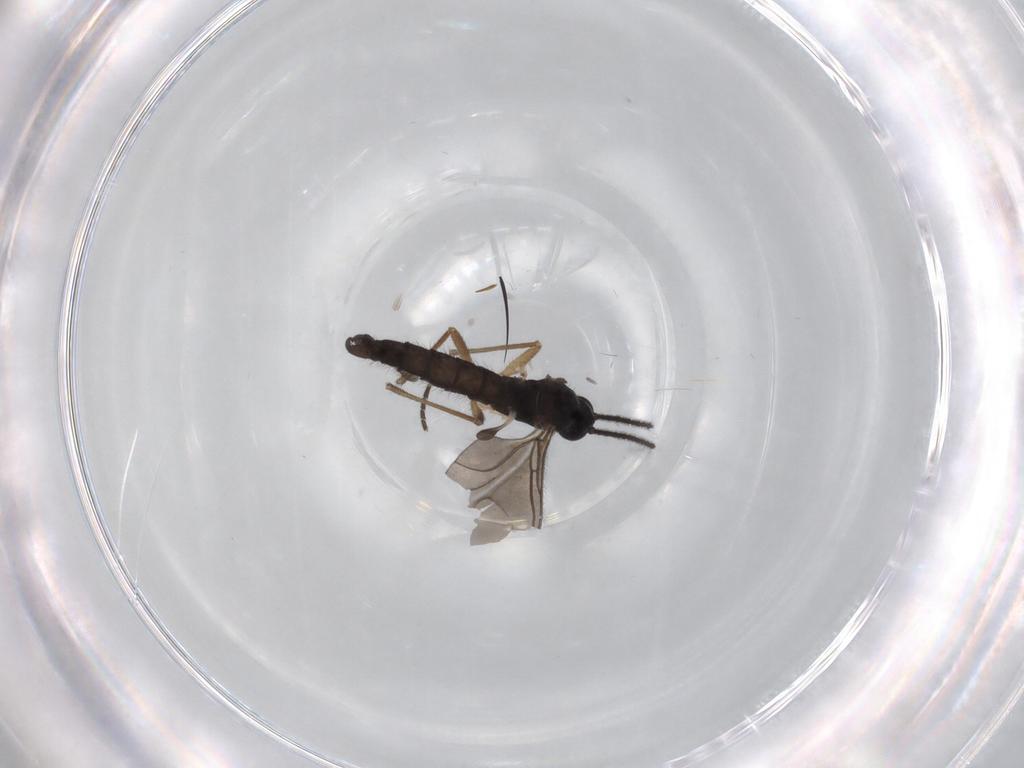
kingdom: Animalia
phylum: Arthropoda
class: Insecta
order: Diptera
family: Sciaridae
